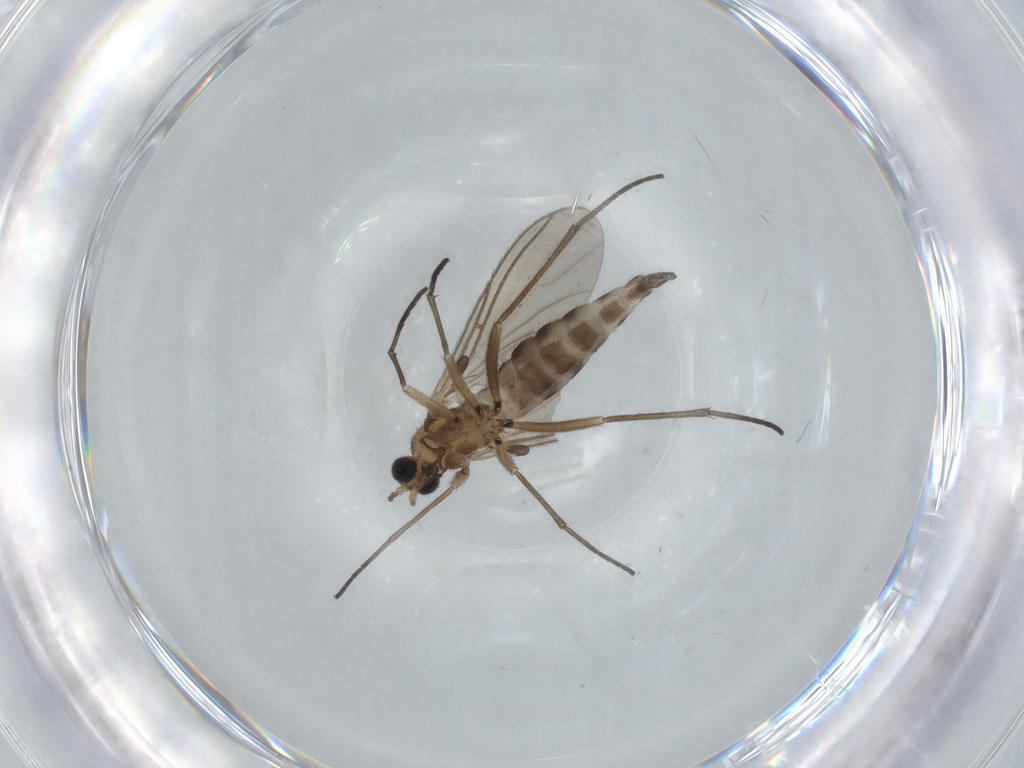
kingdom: Animalia
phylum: Arthropoda
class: Insecta
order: Diptera
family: Sciaridae
